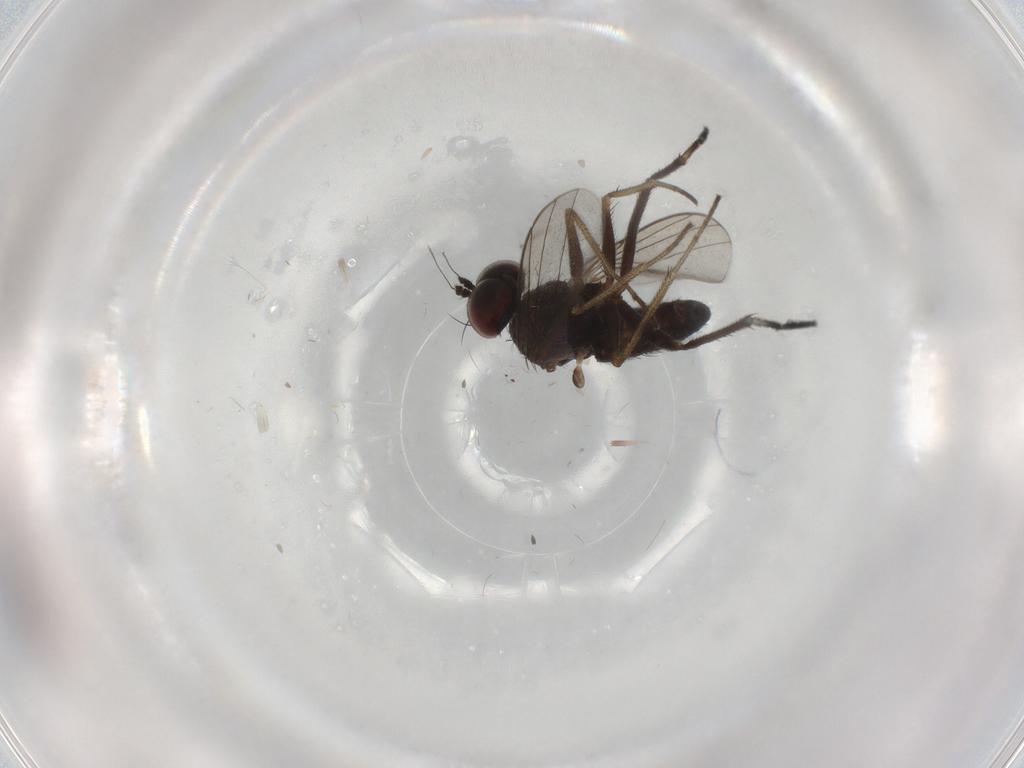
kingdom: Animalia
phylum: Arthropoda
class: Insecta
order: Diptera
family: Dolichopodidae
